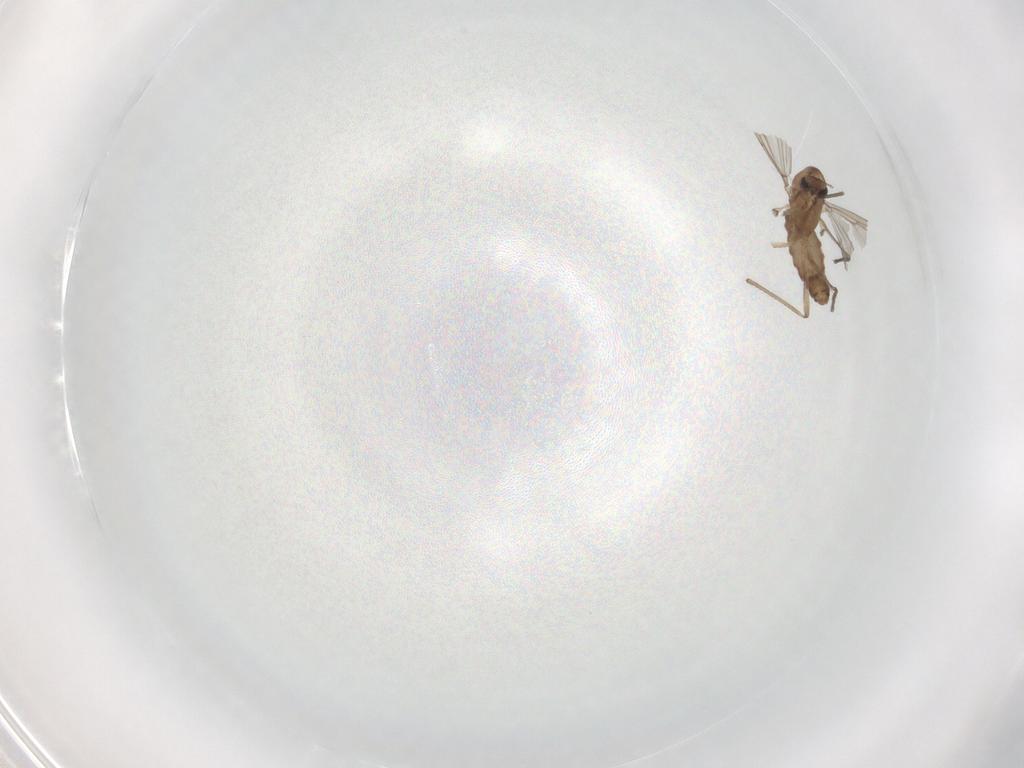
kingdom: Animalia
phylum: Arthropoda
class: Insecta
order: Diptera
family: Chironomidae
